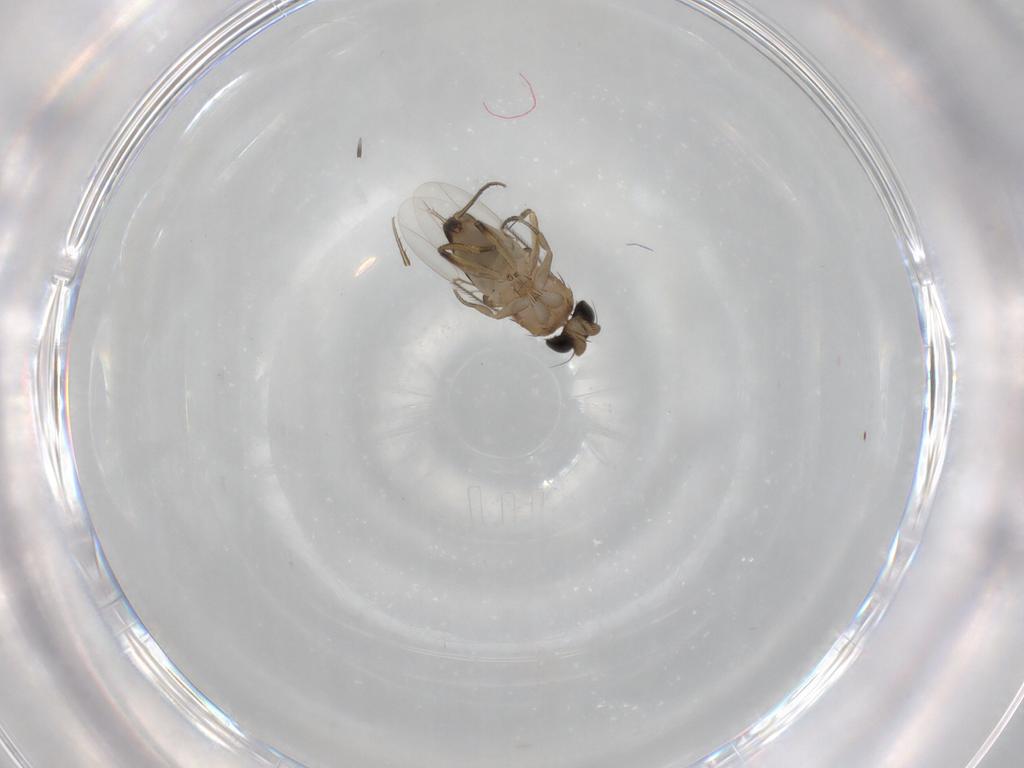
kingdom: Animalia
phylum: Arthropoda
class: Insecta
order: Diptera
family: Phoridae
